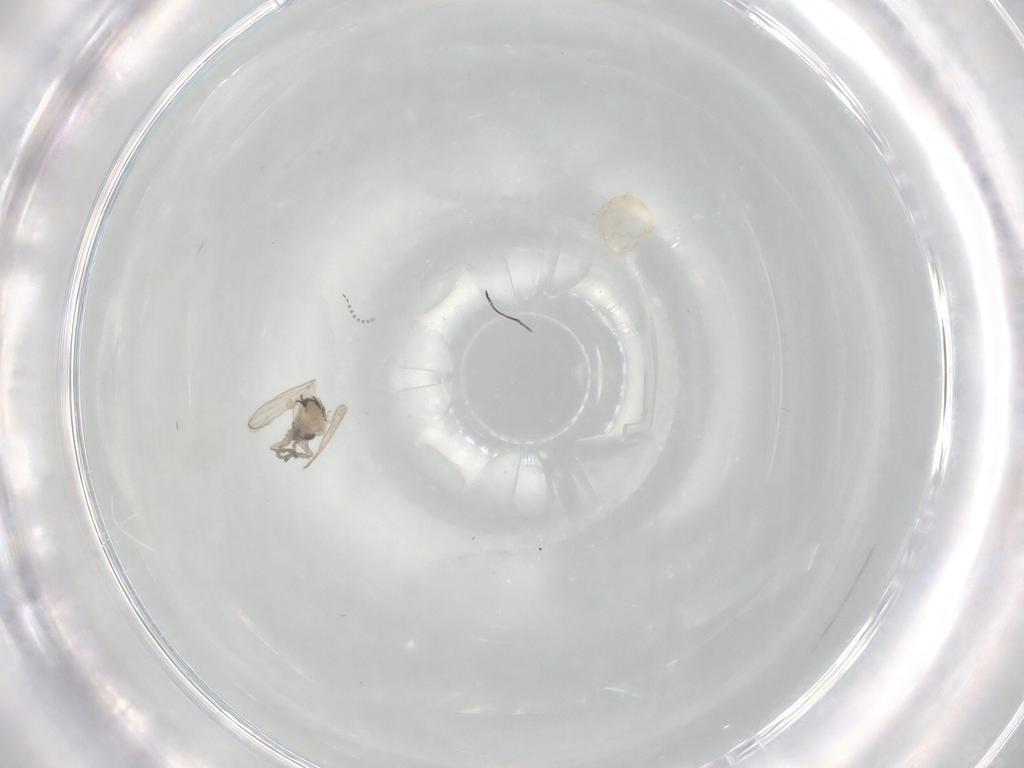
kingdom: Animalia
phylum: Arthropoda
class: Insecta
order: Diptera
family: Psychodidae
